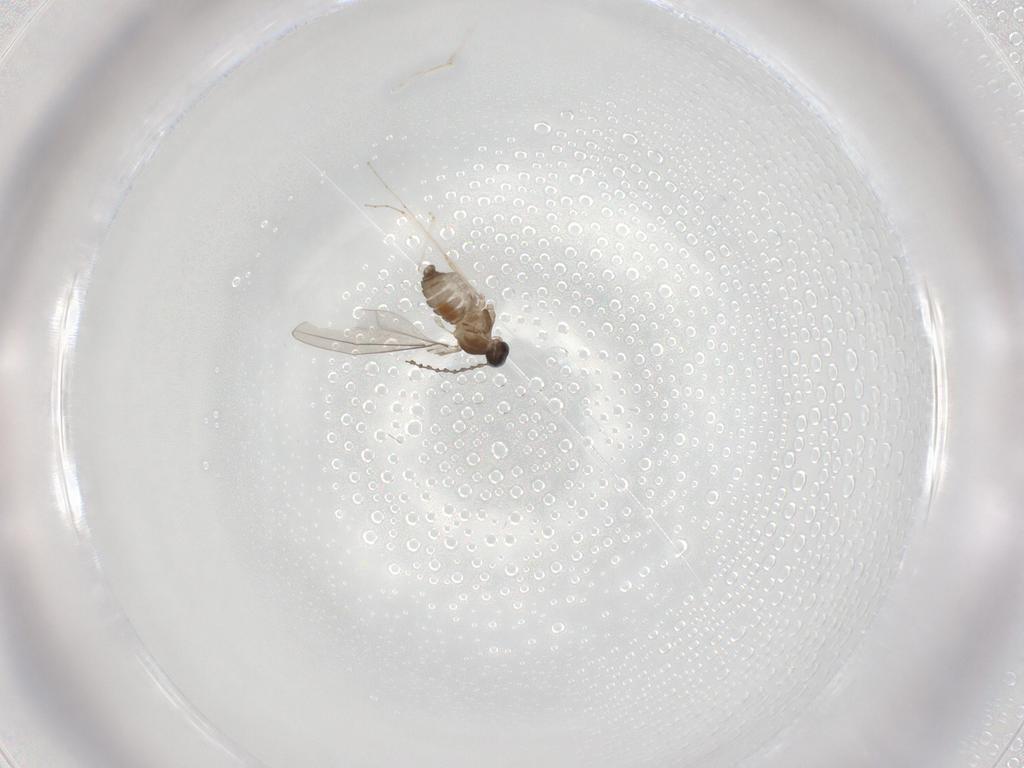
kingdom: Animalia
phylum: Arthropoda
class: Insecta
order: Diptera
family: Cecidomyiidae
